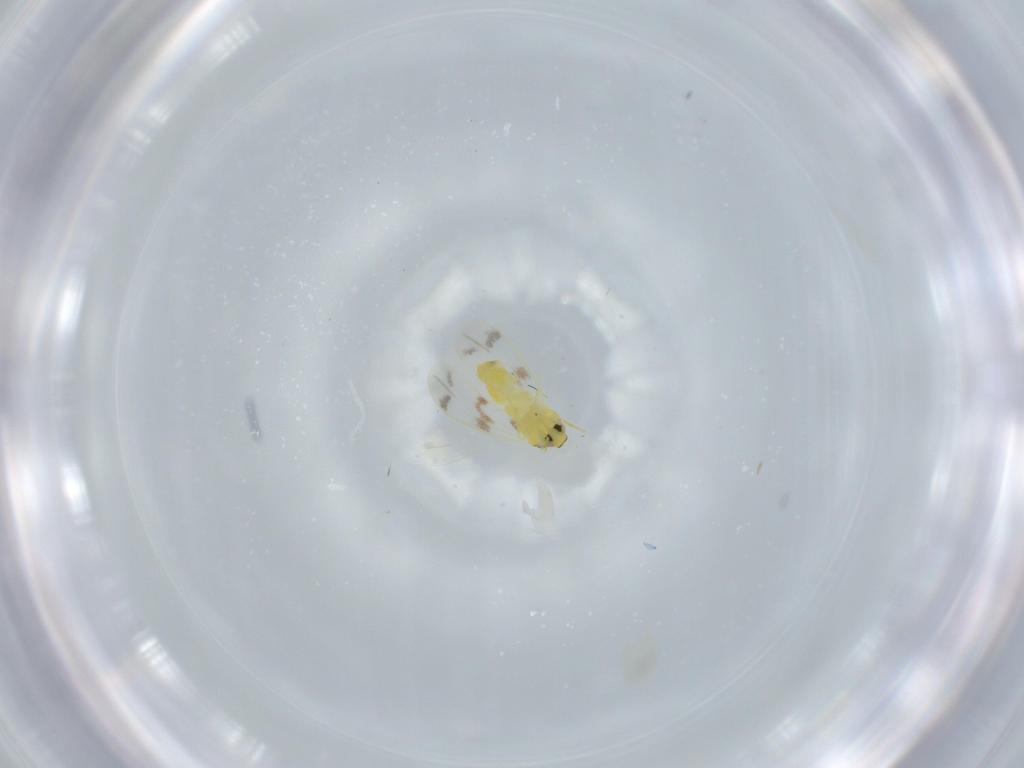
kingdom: Animalia
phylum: Arthropoda
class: Insecta
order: Hemiptera
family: Aleyrodidae
